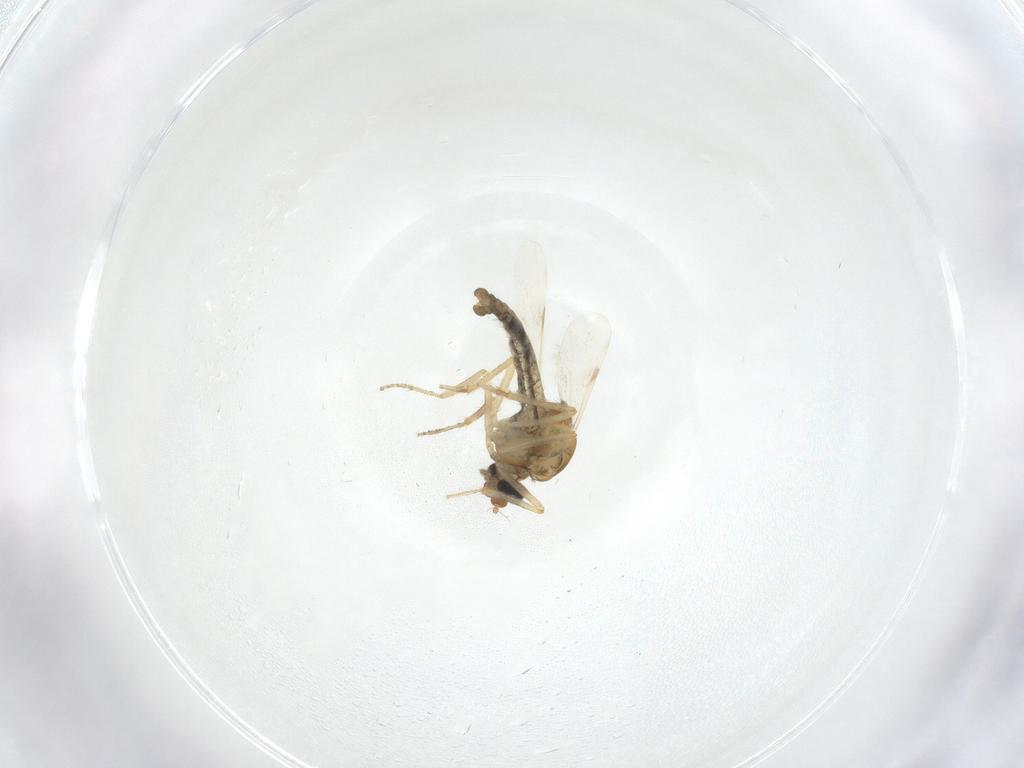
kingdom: Animalia
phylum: Arthropoda
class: Insecta
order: Diptera
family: Ceratopogonidae
